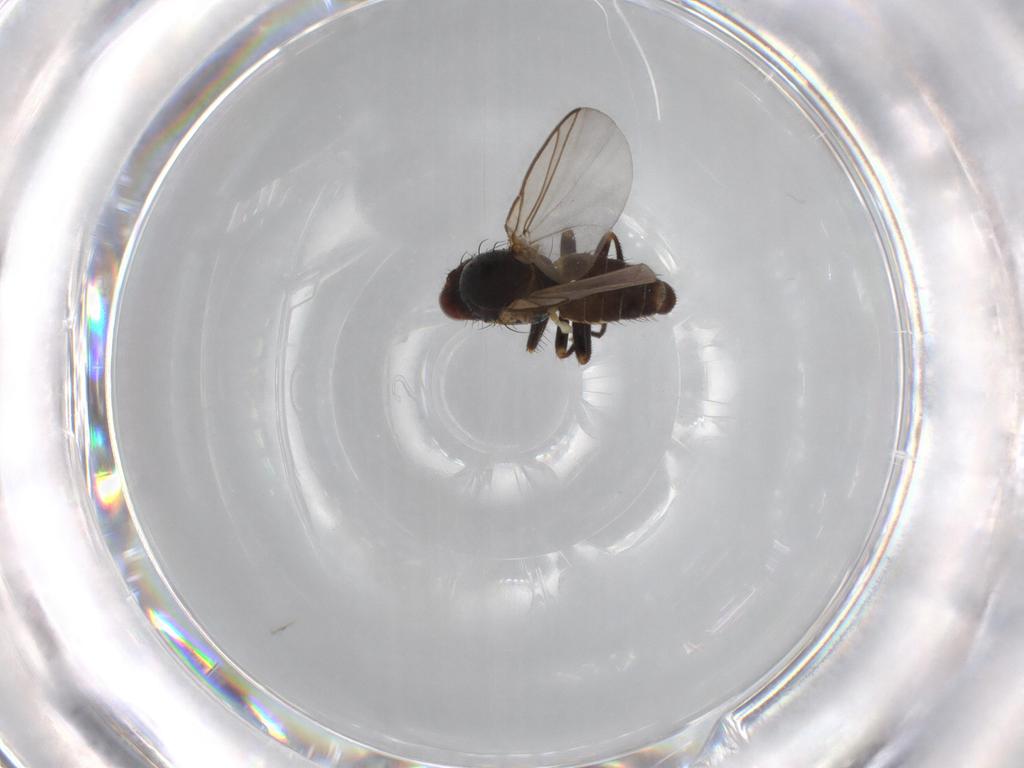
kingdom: Animalia
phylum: Arthropoda
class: Insecta
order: Diptera
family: Agromyzidae
